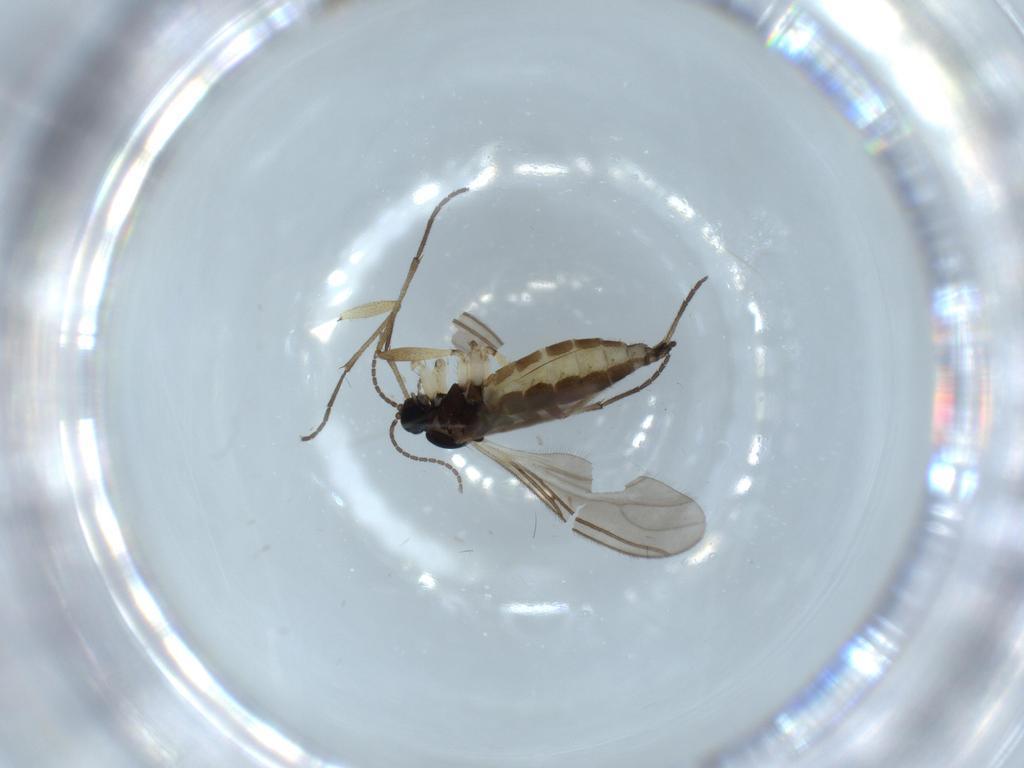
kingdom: Animalia
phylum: Arthropoda
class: Insecta
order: Diptera
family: Sciaridae
